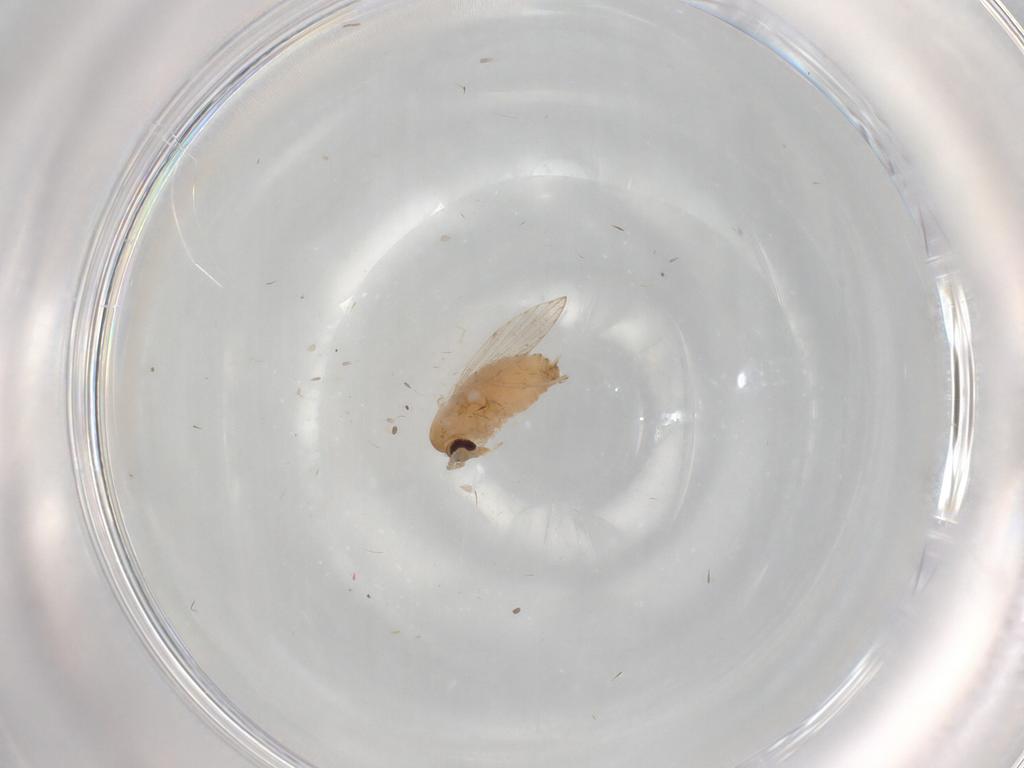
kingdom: Animalia
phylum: Arthropoda
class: Insecta
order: Diptera
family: Psychodidae
